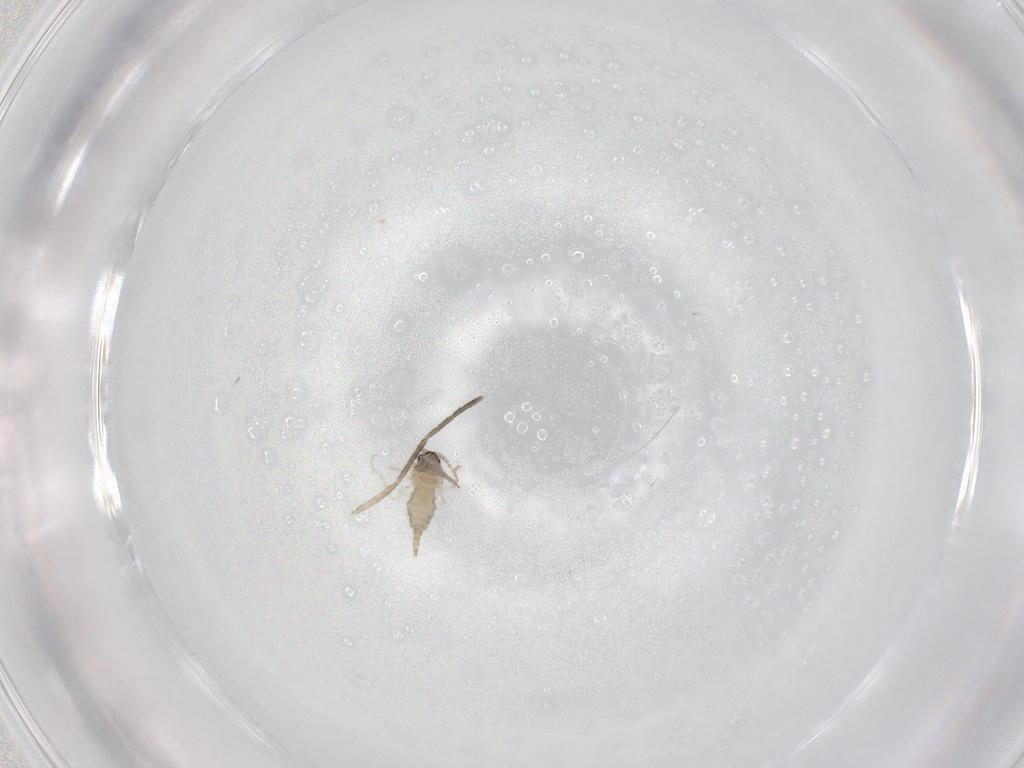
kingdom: Animalia
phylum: Arthropoda
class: Insecta
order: Diptera
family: Cecidomyiidae
